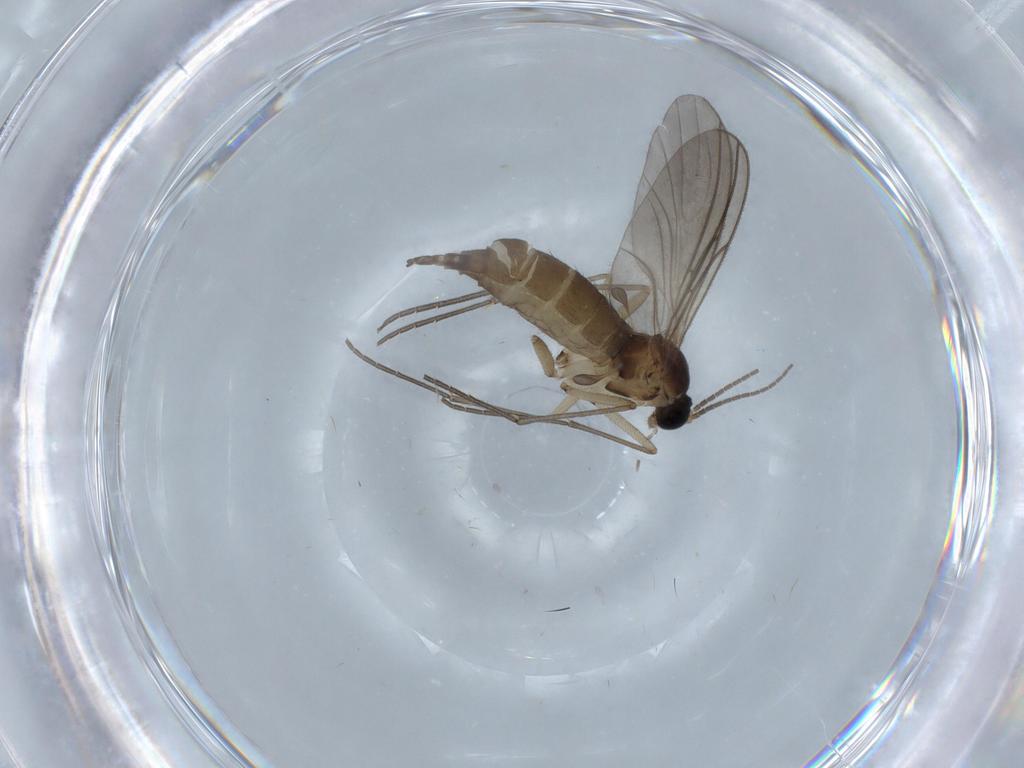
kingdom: Animalia
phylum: Arthropoda
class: Insecta
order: Diptera
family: Sciaridae
